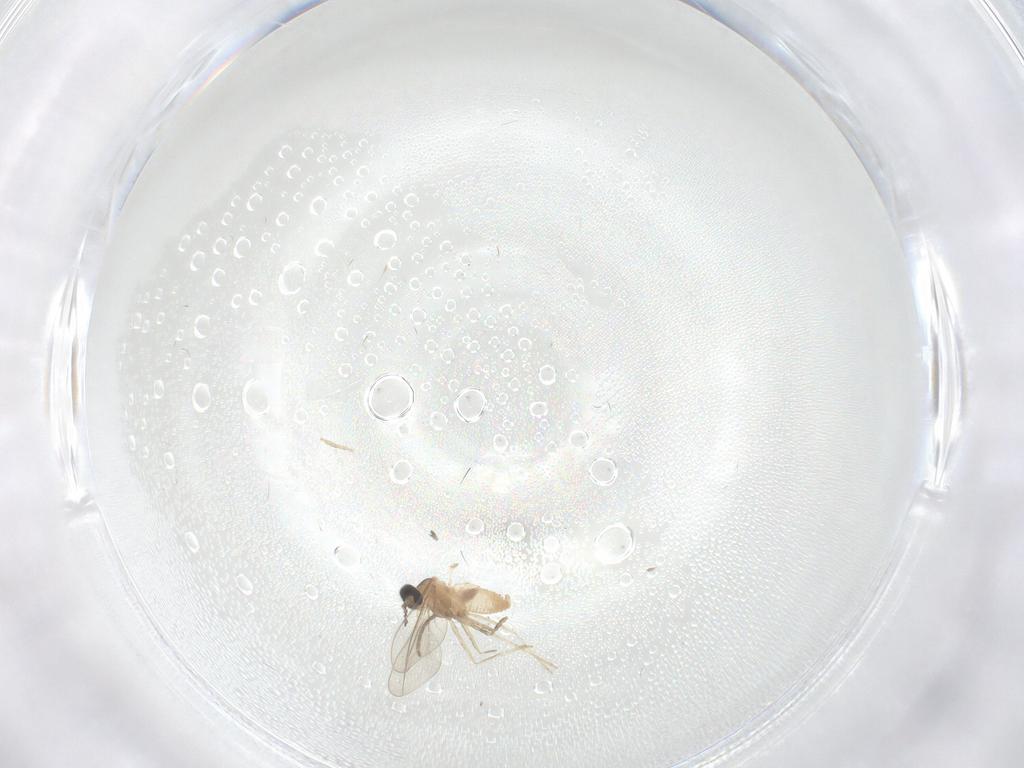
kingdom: Animalia
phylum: Arthropoda
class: Insecta
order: Diptera
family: Cecidomyiidae
